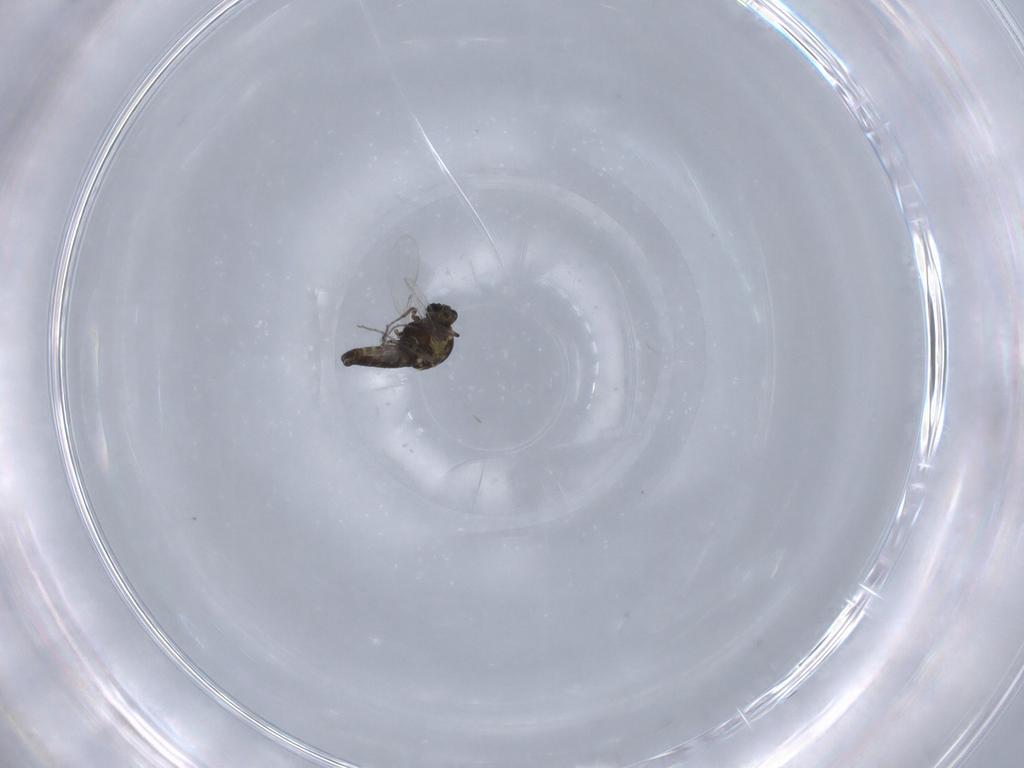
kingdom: Animalia
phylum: Arthropoda
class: Insecta
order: Diptera
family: Ceratopogonidae
